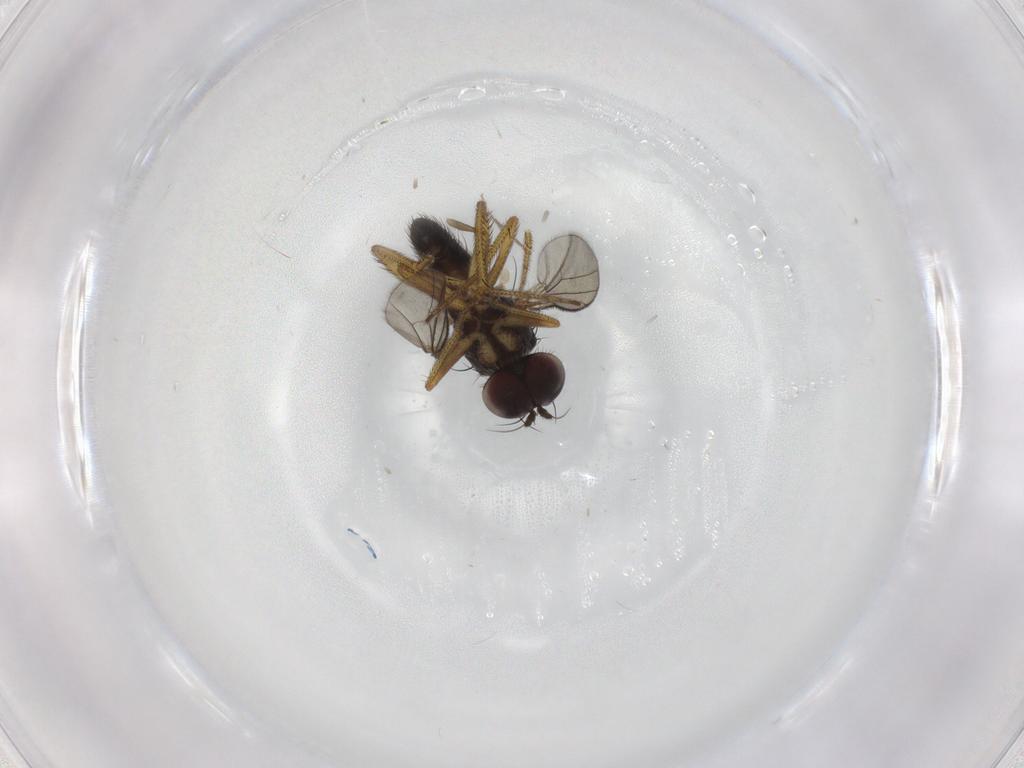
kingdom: Animalia
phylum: Arthropoda
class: Insecta
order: Diptera
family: Dolichopodidae
